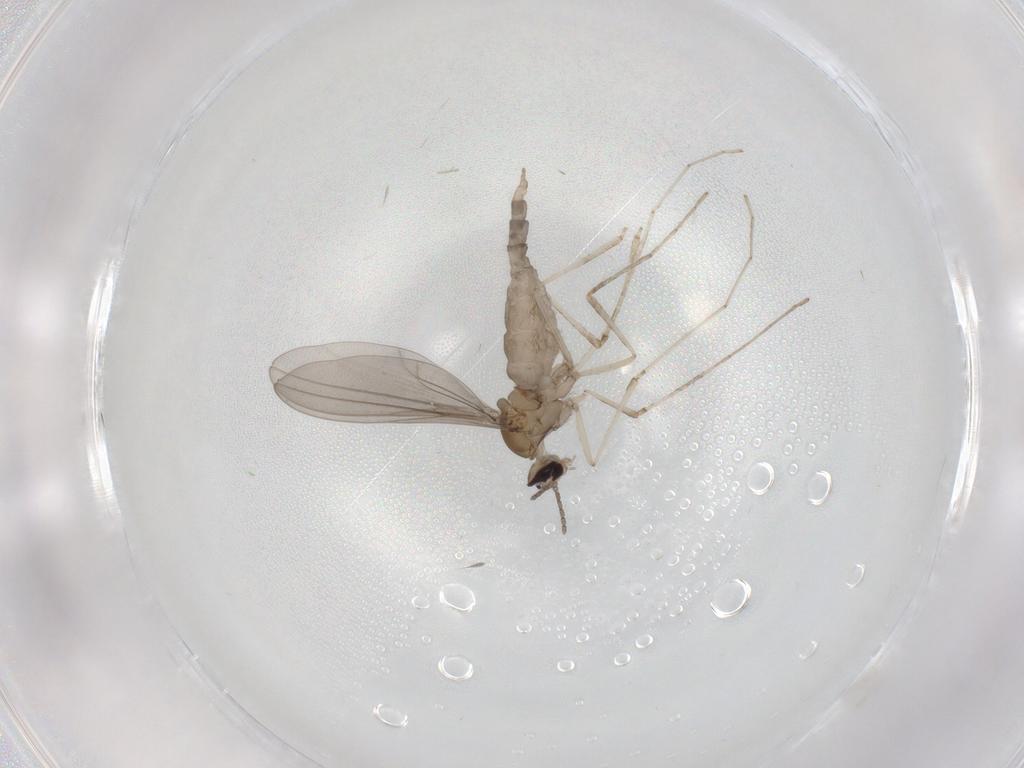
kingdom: Animalia
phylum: Arthropoda
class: Insecta
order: Diptera
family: Cecidomyiidae
